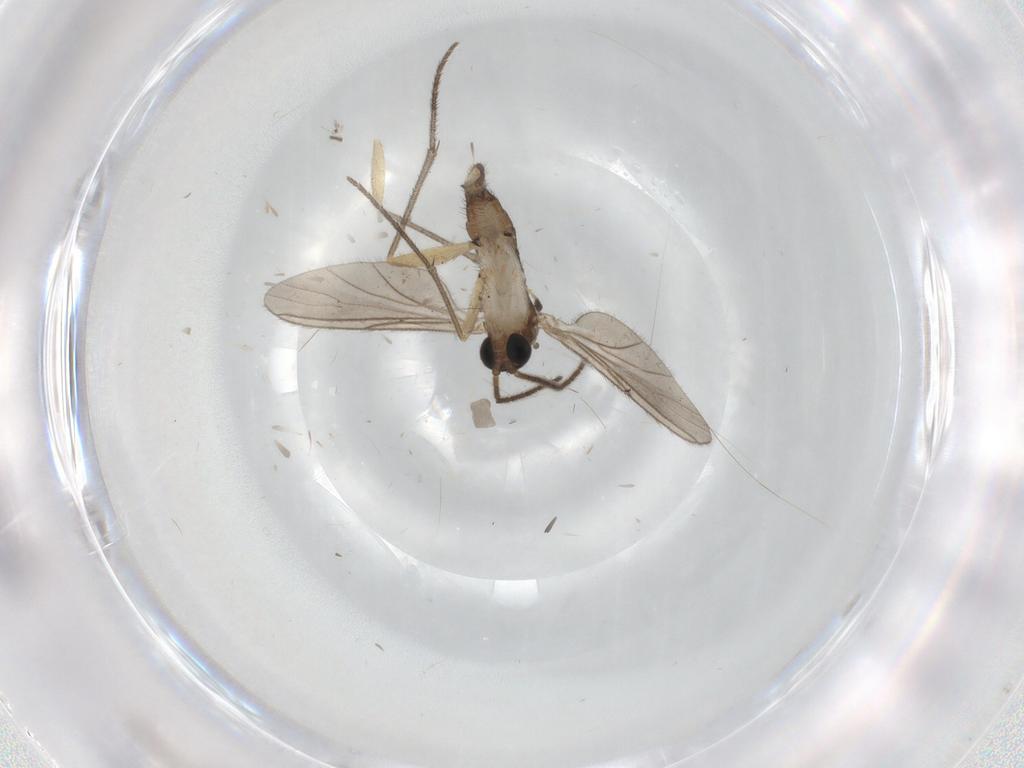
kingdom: Animalia
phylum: Arthropoda
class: Insecta
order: Diptera
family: Sciaridae
